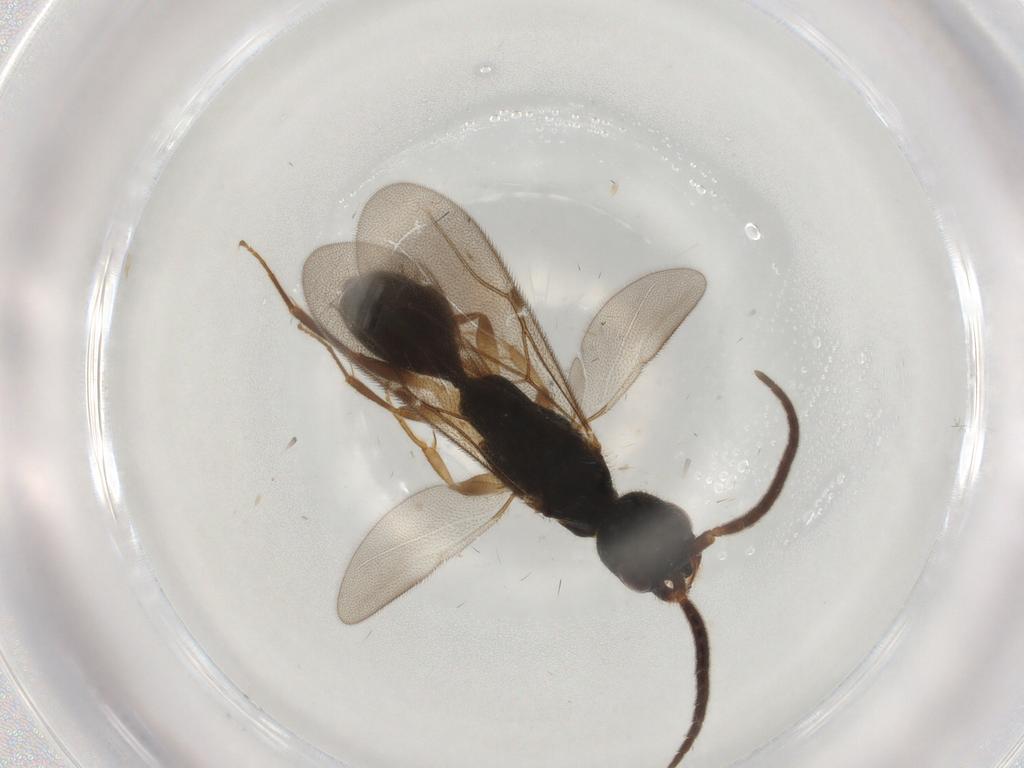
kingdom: Animalia
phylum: Arthropoda
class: Insecta
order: Hymenoptera
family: Bethylidae
